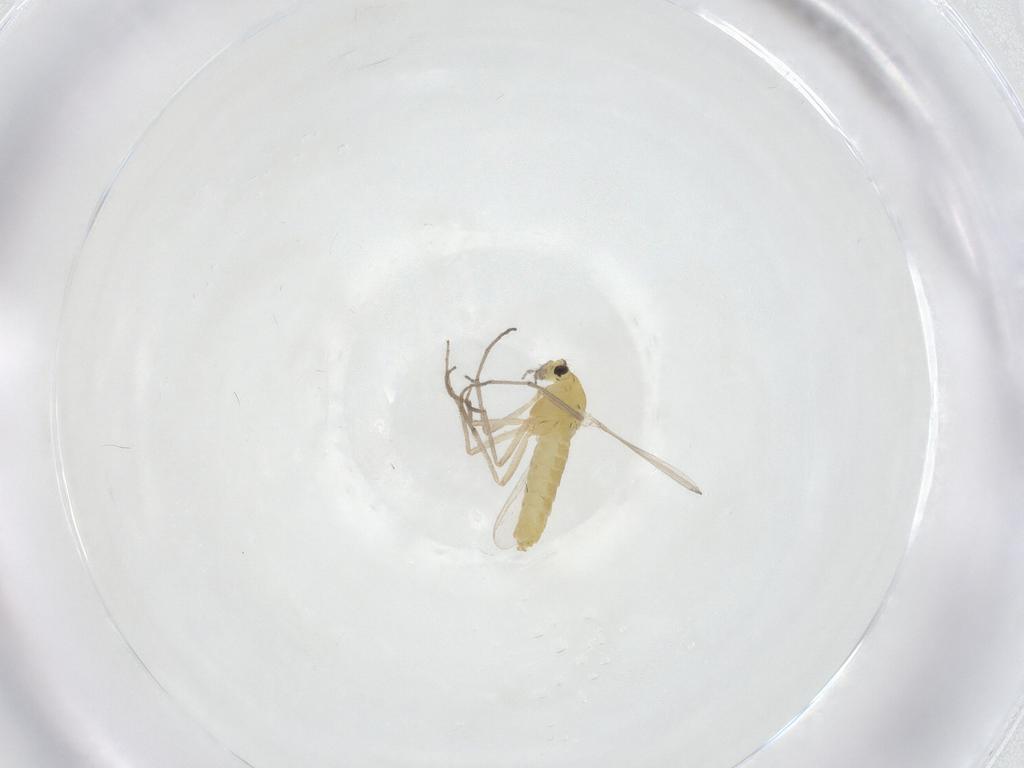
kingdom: Animalia
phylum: Arthropoda
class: Insecta
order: Diptera
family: Chironomidae
